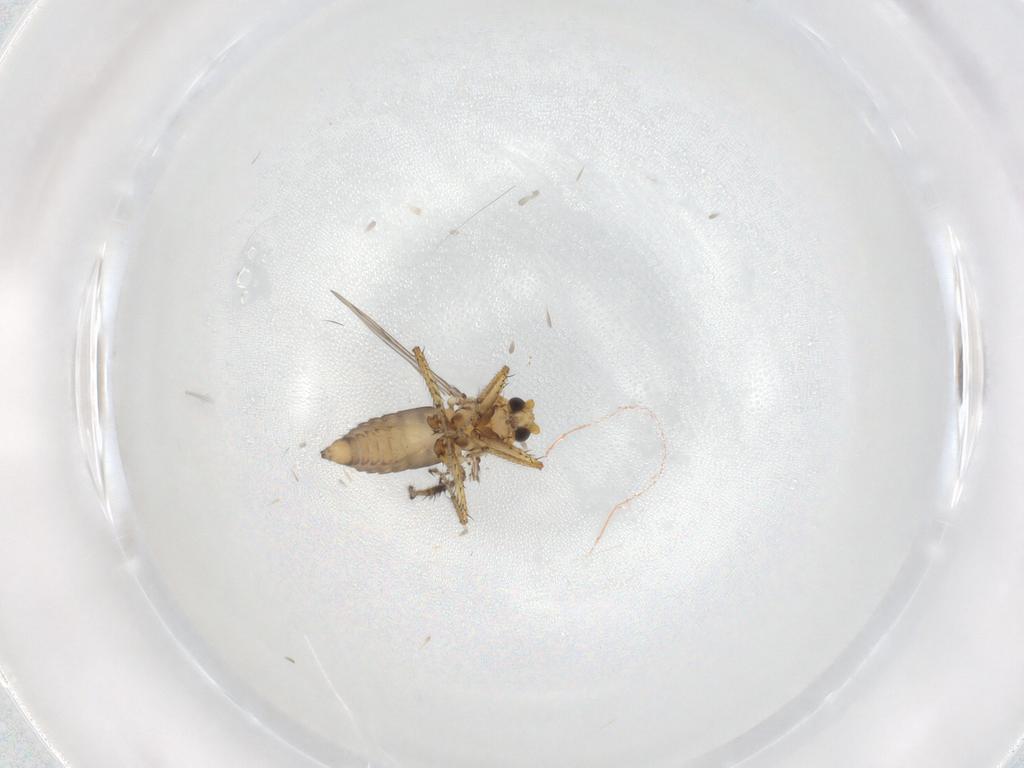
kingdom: Animalia
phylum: Arthropoda
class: Insecta
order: Diptera
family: Ceratopogonidae
